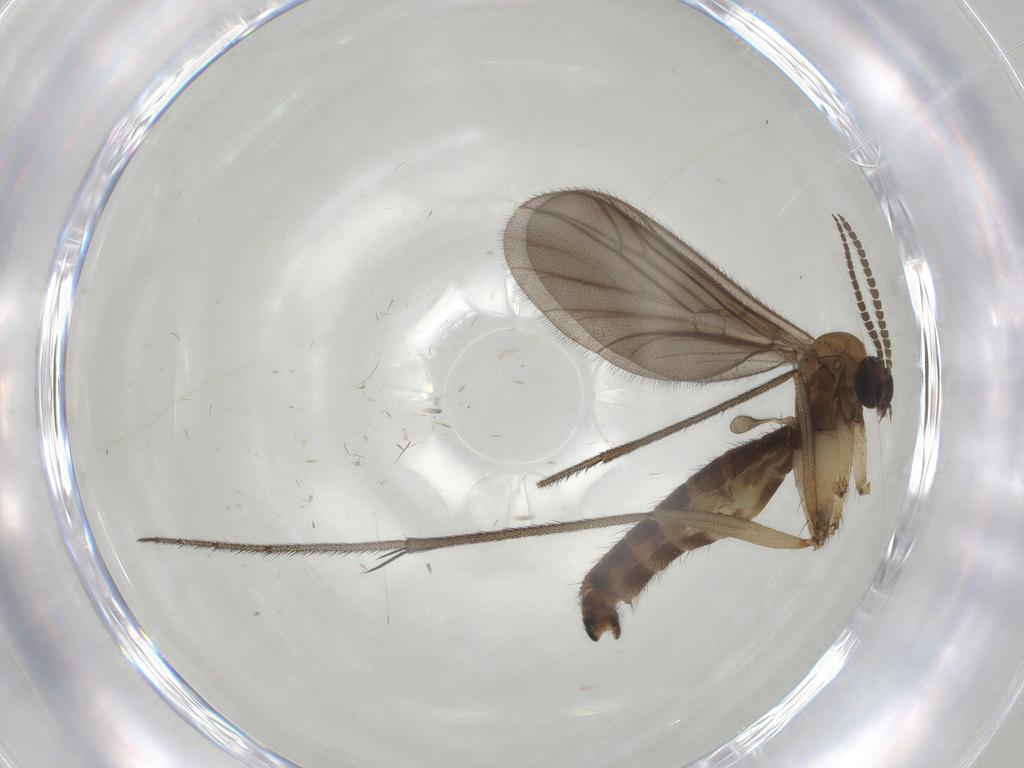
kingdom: Animalia
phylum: Arthropoda
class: Insecta
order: Diptera
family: Ditomyiidae
